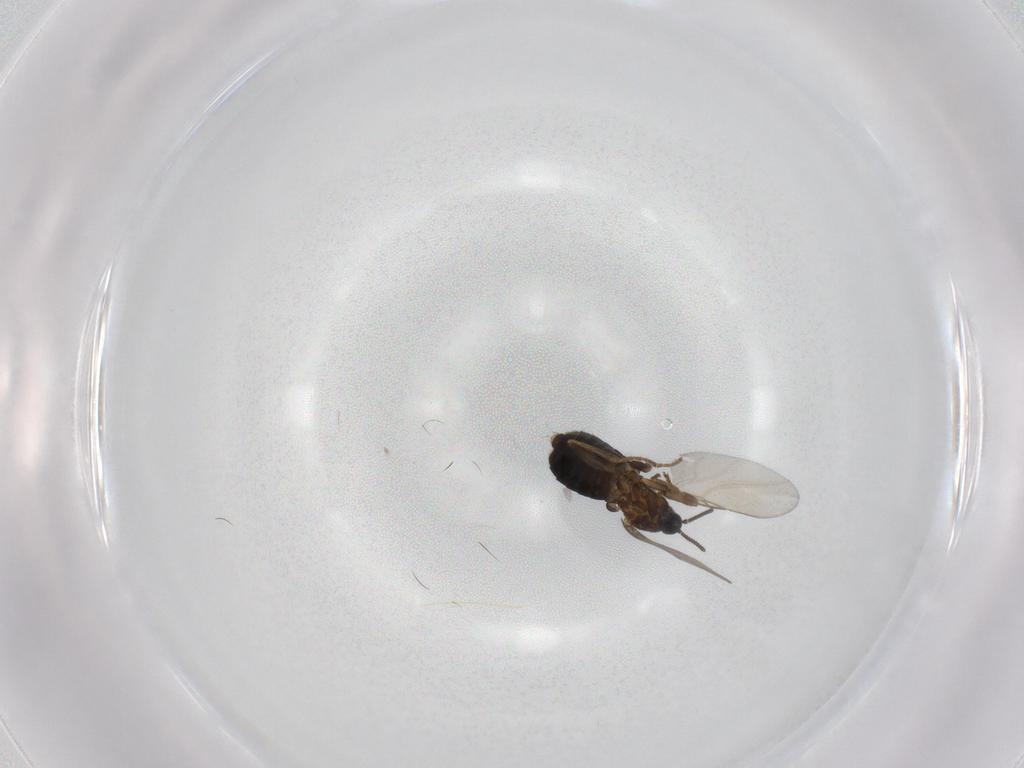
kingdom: Animalia
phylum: Arthropoda
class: Insecta
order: Diptera
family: Scatopsidae
